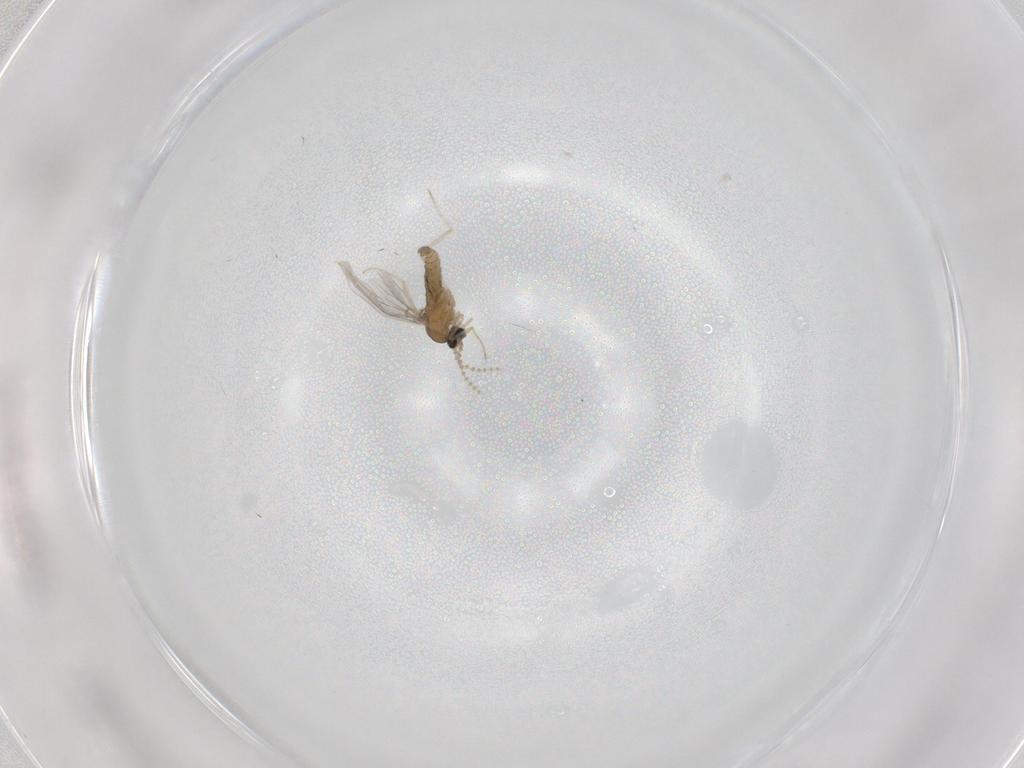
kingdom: Animalia
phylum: Arthropoda
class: Insecta
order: Diptera
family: Cecidomyiidae
